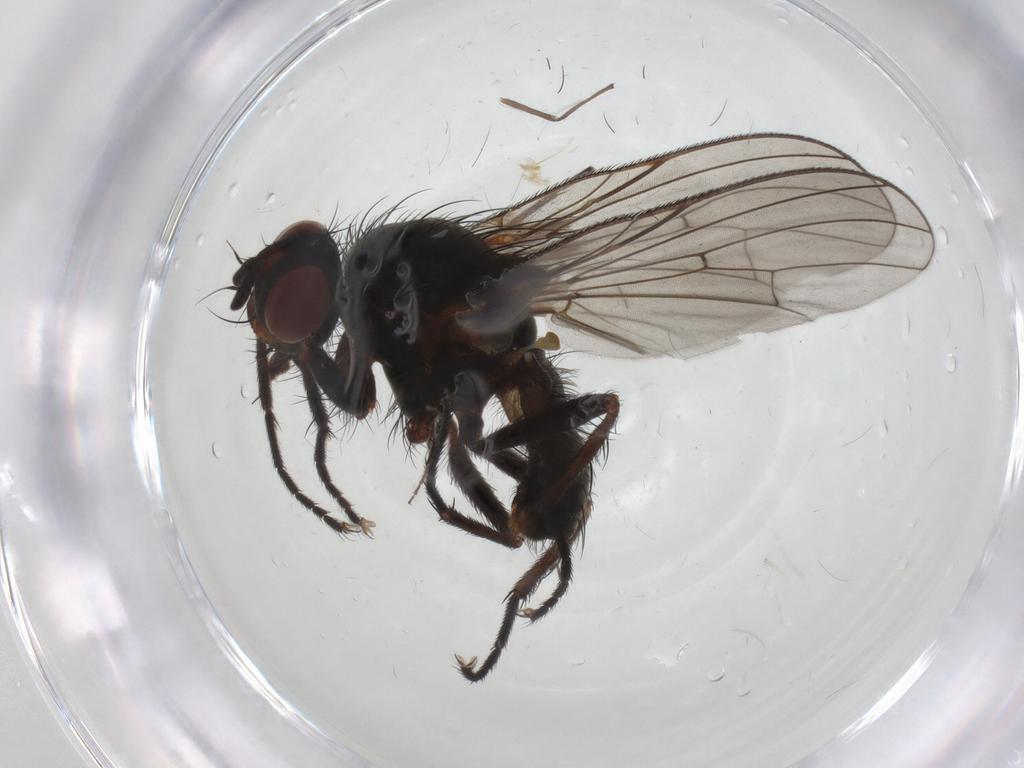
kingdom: Animalia
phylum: Arthropoda
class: Insecta
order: Diptera
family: Anthomyiidae
